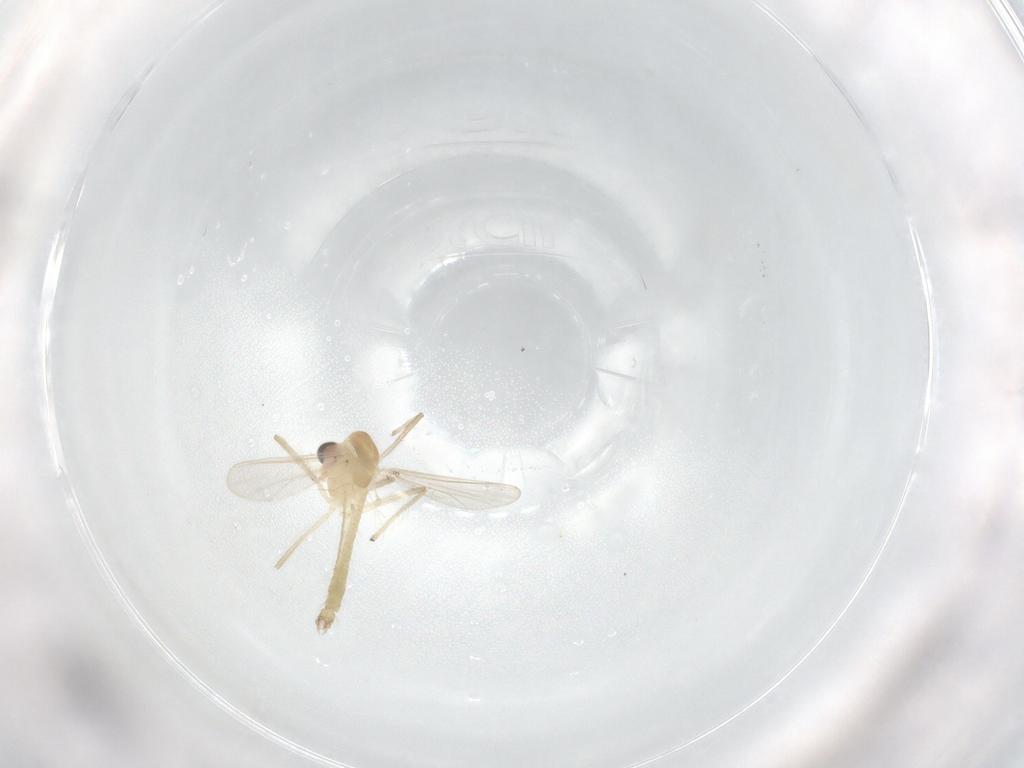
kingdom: Animalia
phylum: Arthropoda
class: Insecta
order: Diptera
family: Chironomidae
